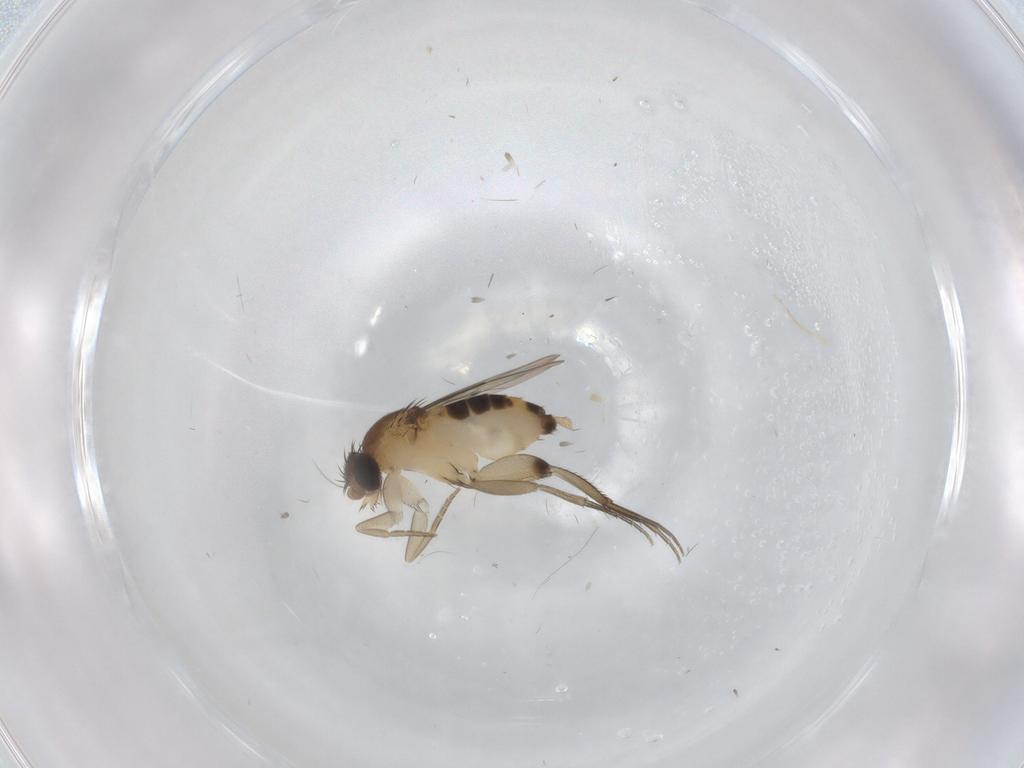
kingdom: Animalia
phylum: Arthropoda
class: Insecta
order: Diptera
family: Phoridae
